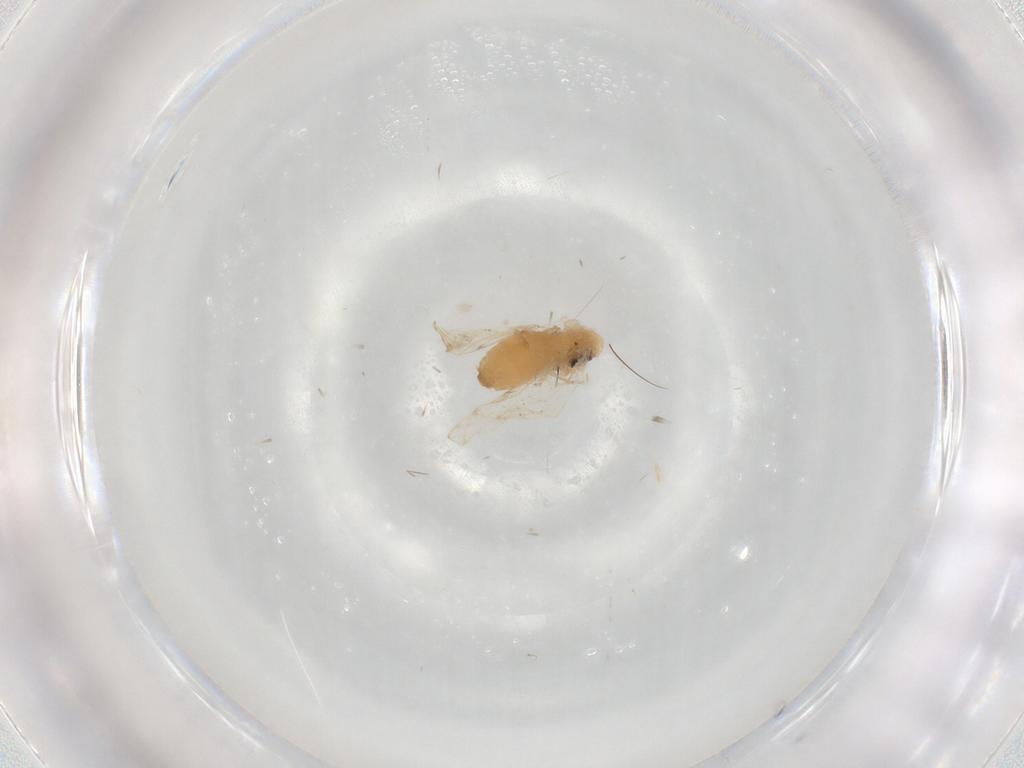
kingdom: Animalia
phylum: Arthropoda
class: Insecta
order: Diptera
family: Psychodidae
